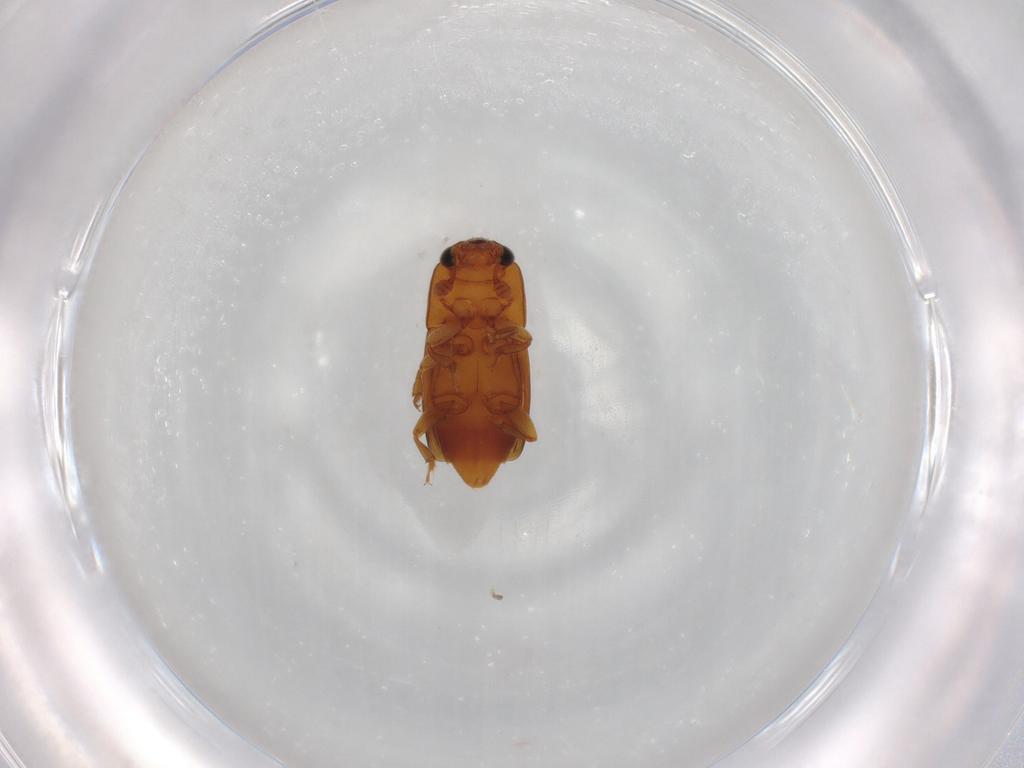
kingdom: Animalia
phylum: Arthropoda
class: Insecta
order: Coleoptera
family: Nitidulidae
